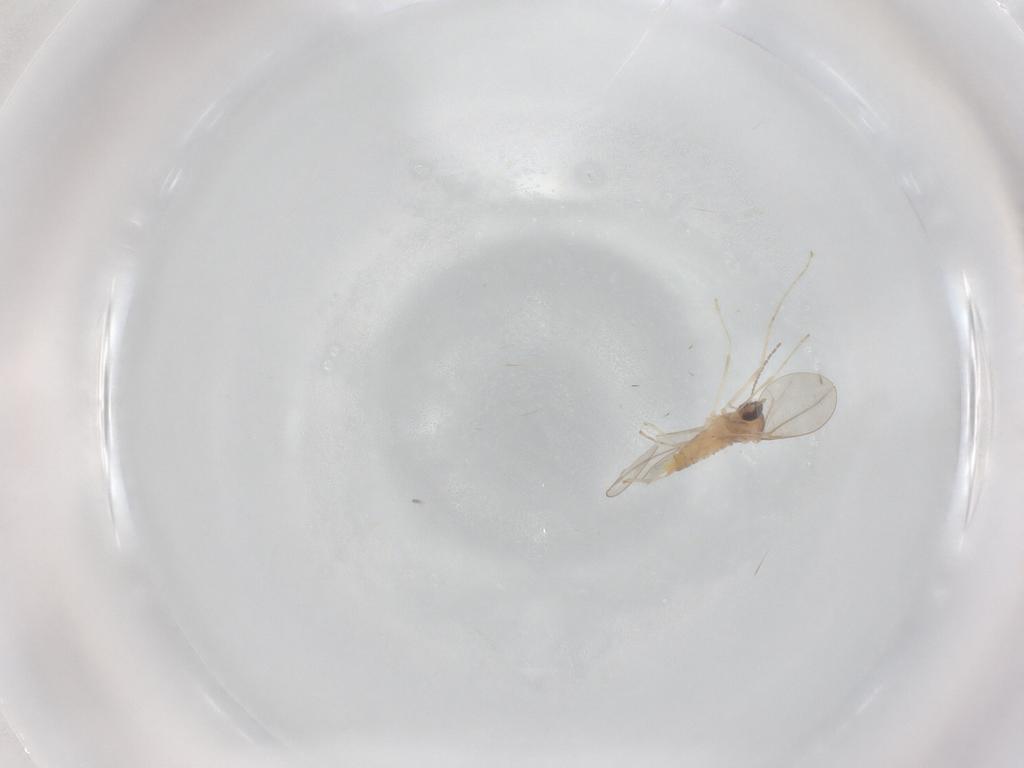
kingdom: Animalia
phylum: Arthropoda
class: Insecta
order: Diptera
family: Cecidomyiidae
